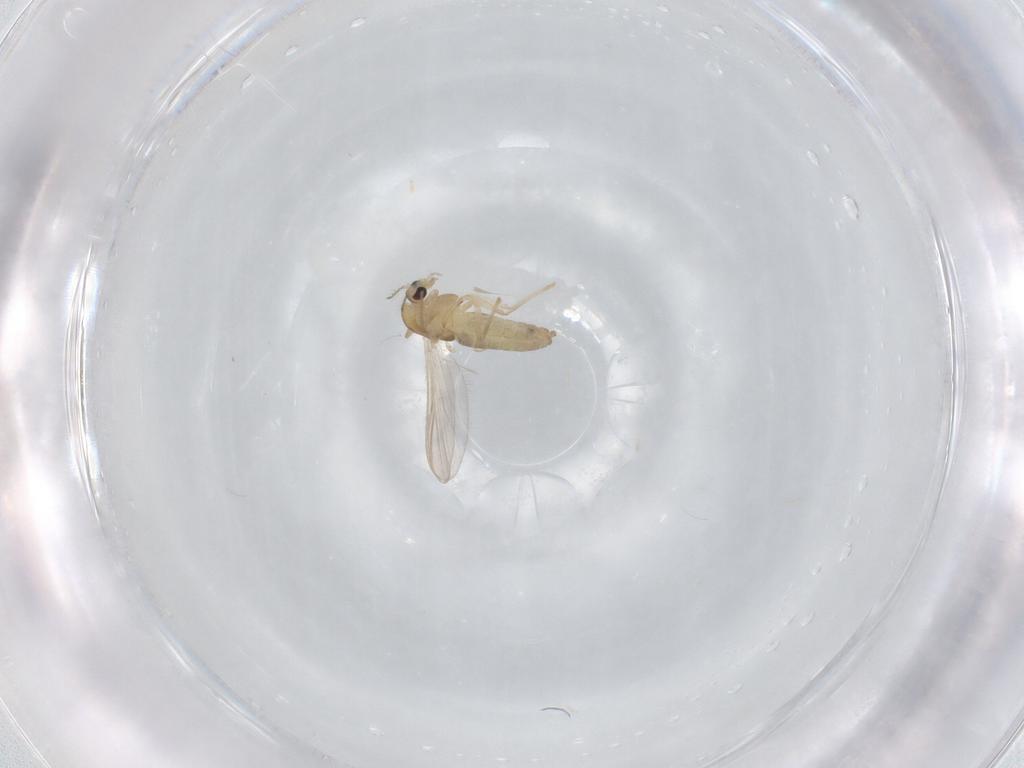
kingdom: Animalia
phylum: Arthropoda
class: Insecta
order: Diptera
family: Chironomidae
